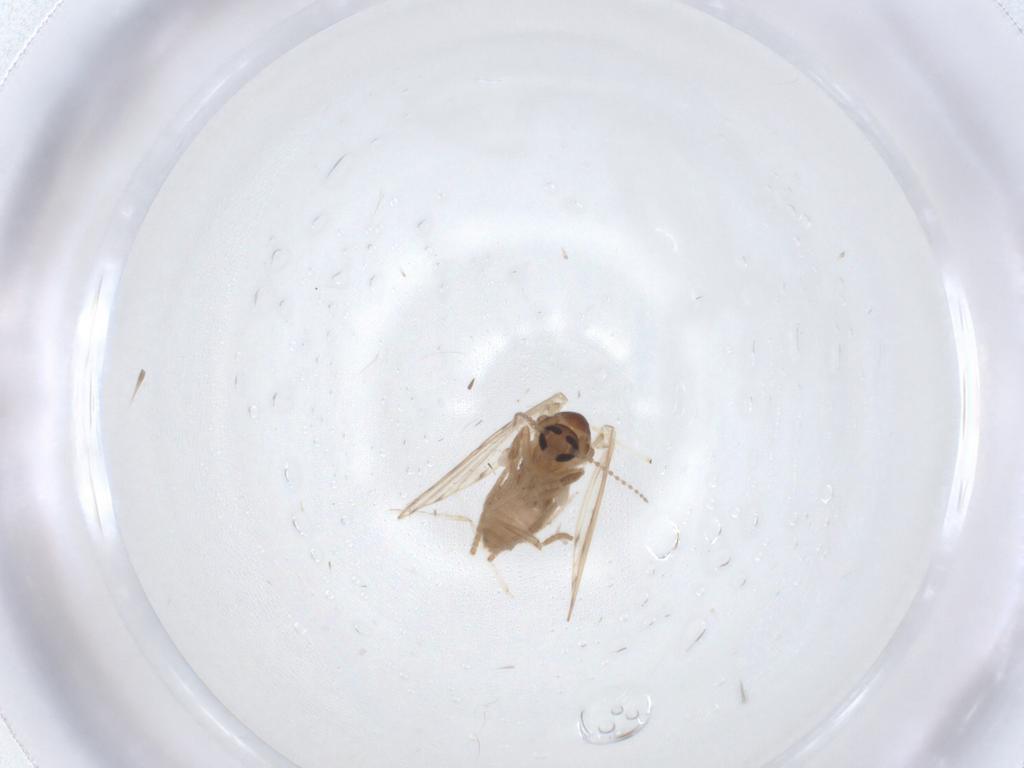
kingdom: Animalia
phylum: Arthropoda
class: Insecta
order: Diptera
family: Psychodidae
